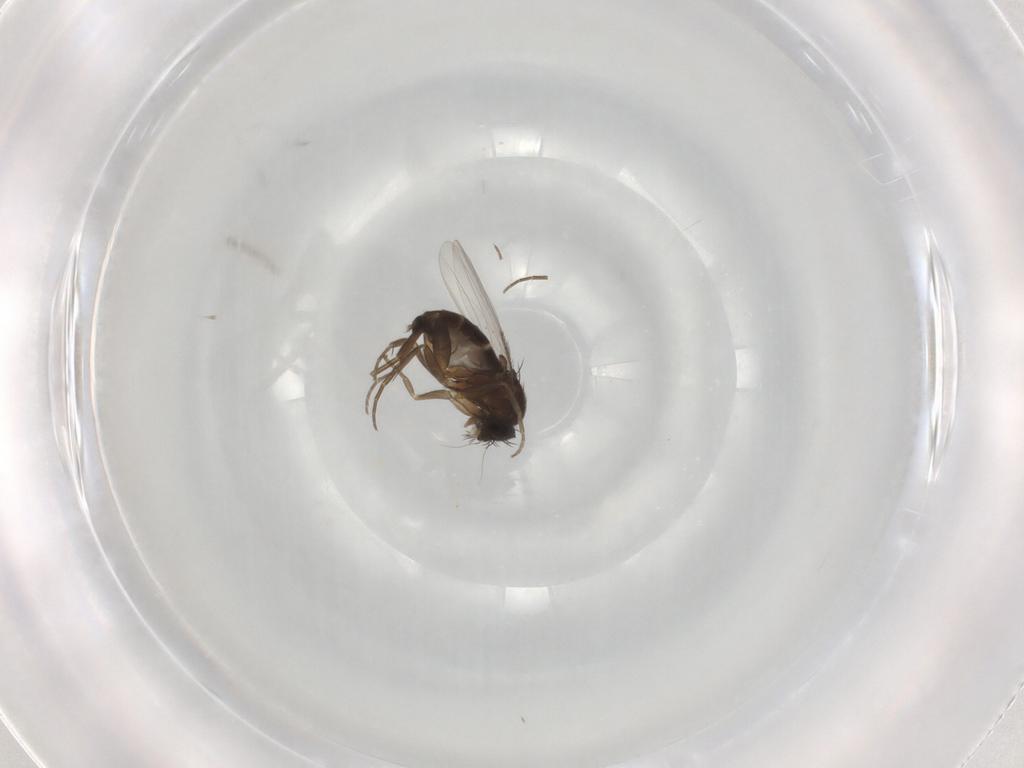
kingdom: Animalia
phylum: Arthropoda
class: Insecta
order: Diptera
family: Phoridae
